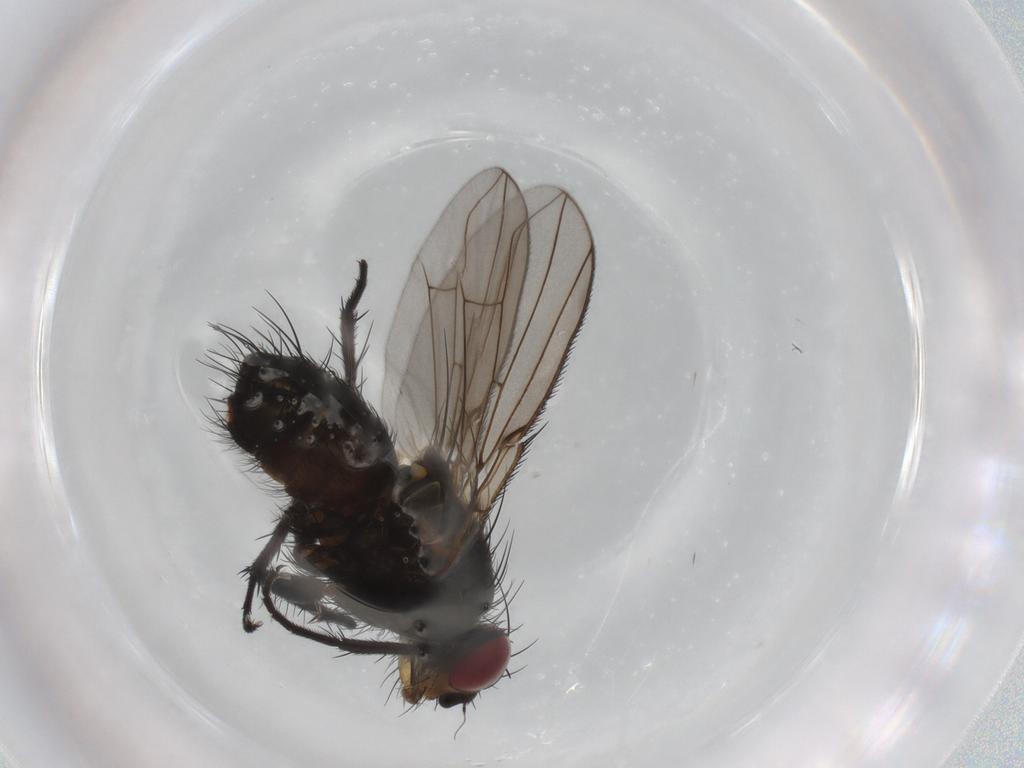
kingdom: Animalia
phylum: Arthropoda
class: Insecta
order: Diptera
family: Tachinidae
